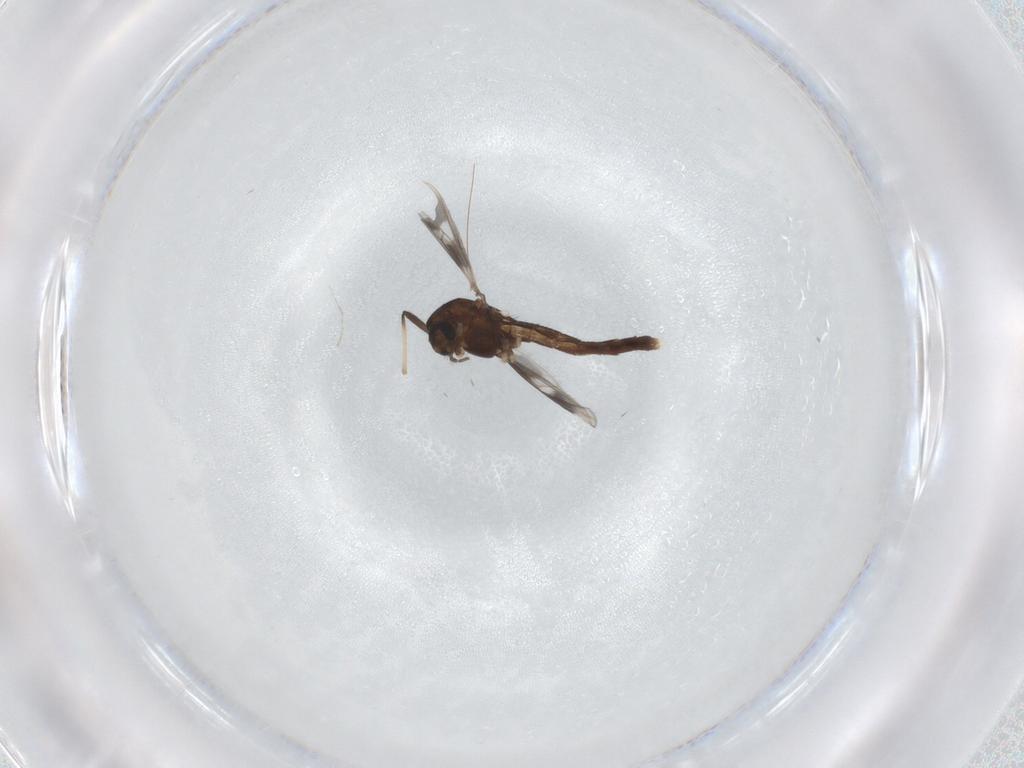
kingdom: Animalia
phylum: Arthropoda
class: Insecta
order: Diptera
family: Chironomidae
